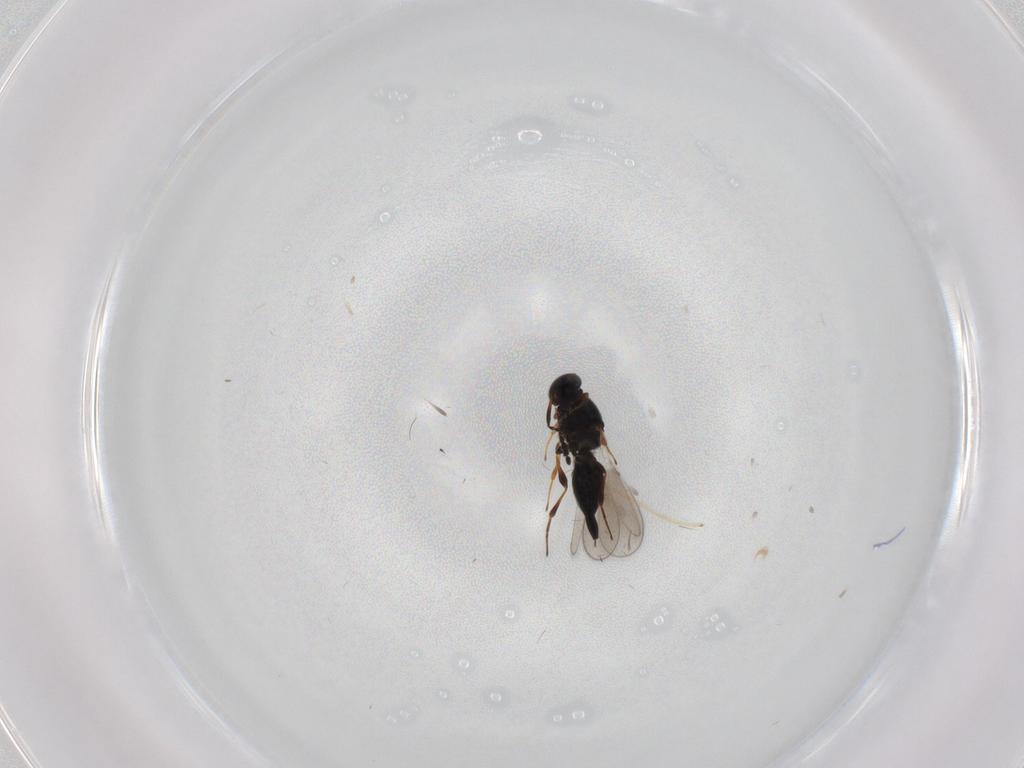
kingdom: Animalia
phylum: Arthropoda
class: Insecta
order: Hymenoptera
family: Platygastridae
